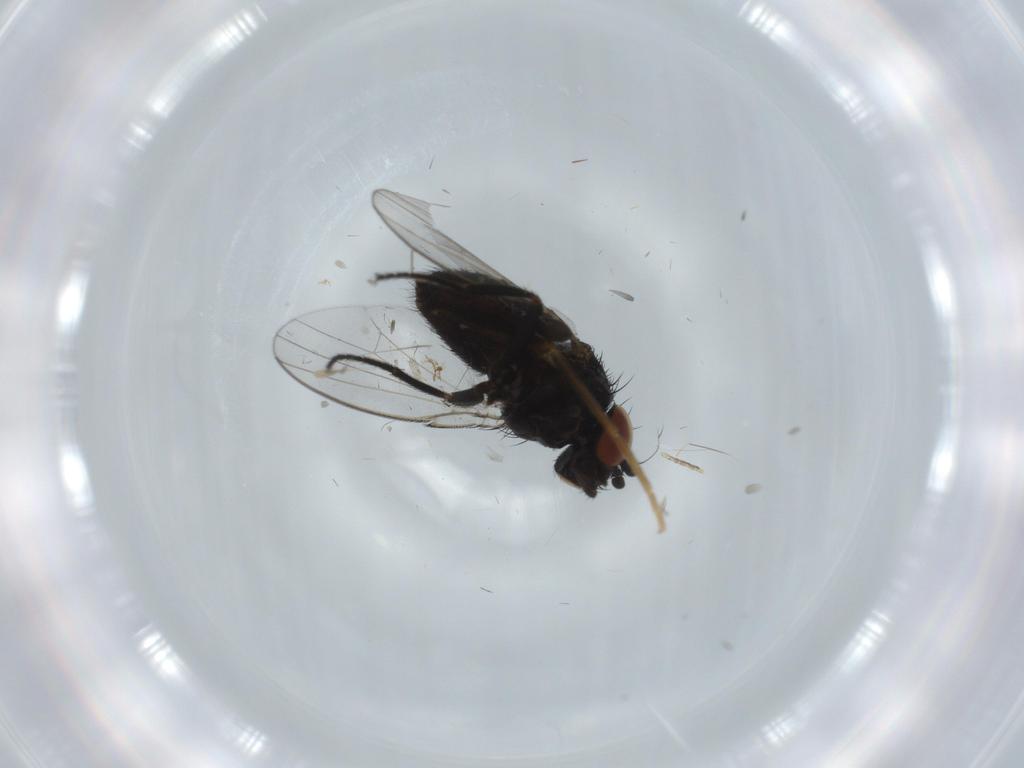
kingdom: Animalia
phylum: Arthropoda
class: Insecta
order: Diptera
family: Milichiidae
